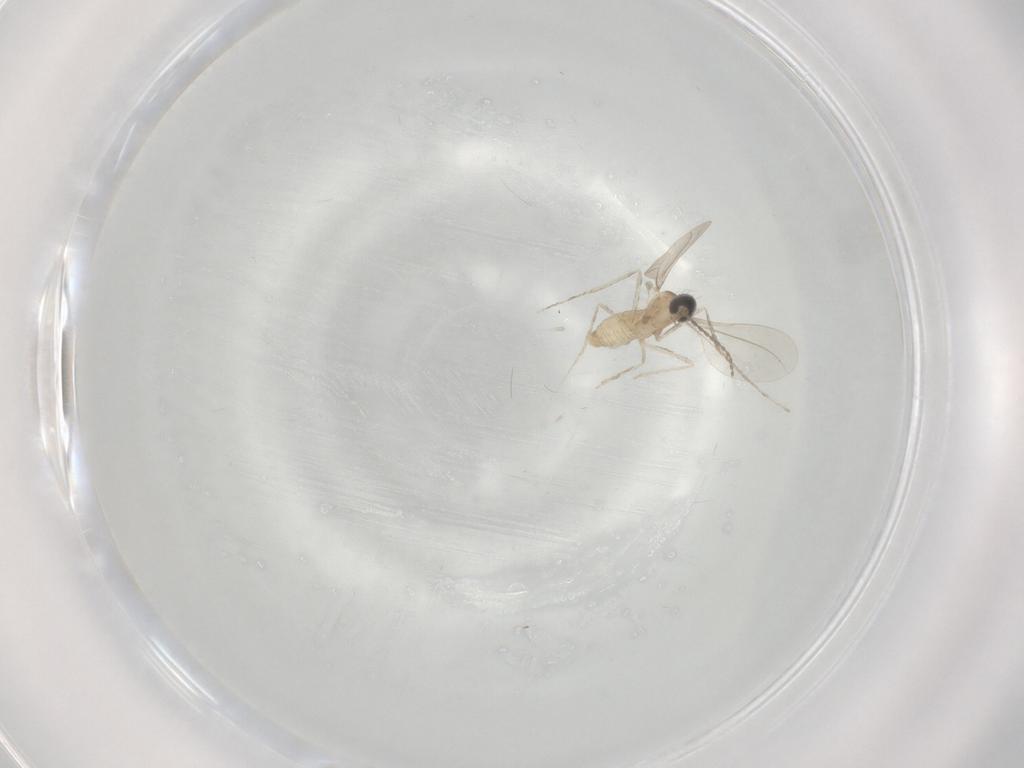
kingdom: Animalia
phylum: Arthropoda
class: Insecta
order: Diptera
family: Cecidomyiidae
